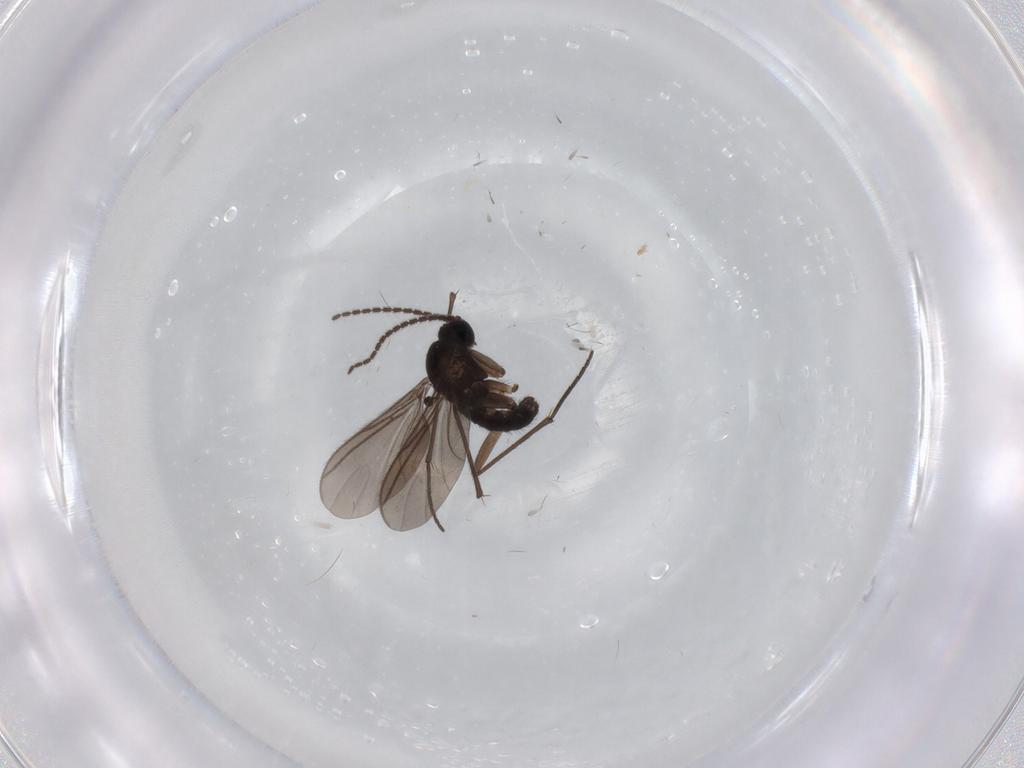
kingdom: Animalia
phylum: Arthropoda
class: Insecta
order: Diptera
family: Sciaridae
